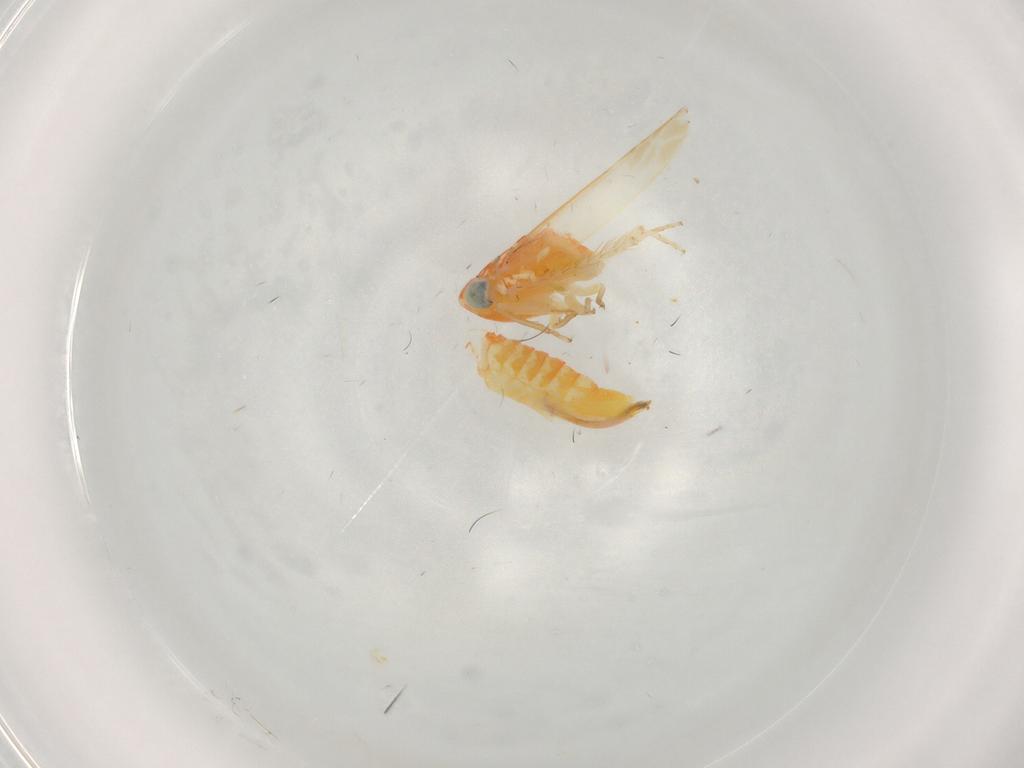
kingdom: Animalia
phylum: Arthropoda
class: Insecta
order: Hemiptera
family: Cicadellidae
